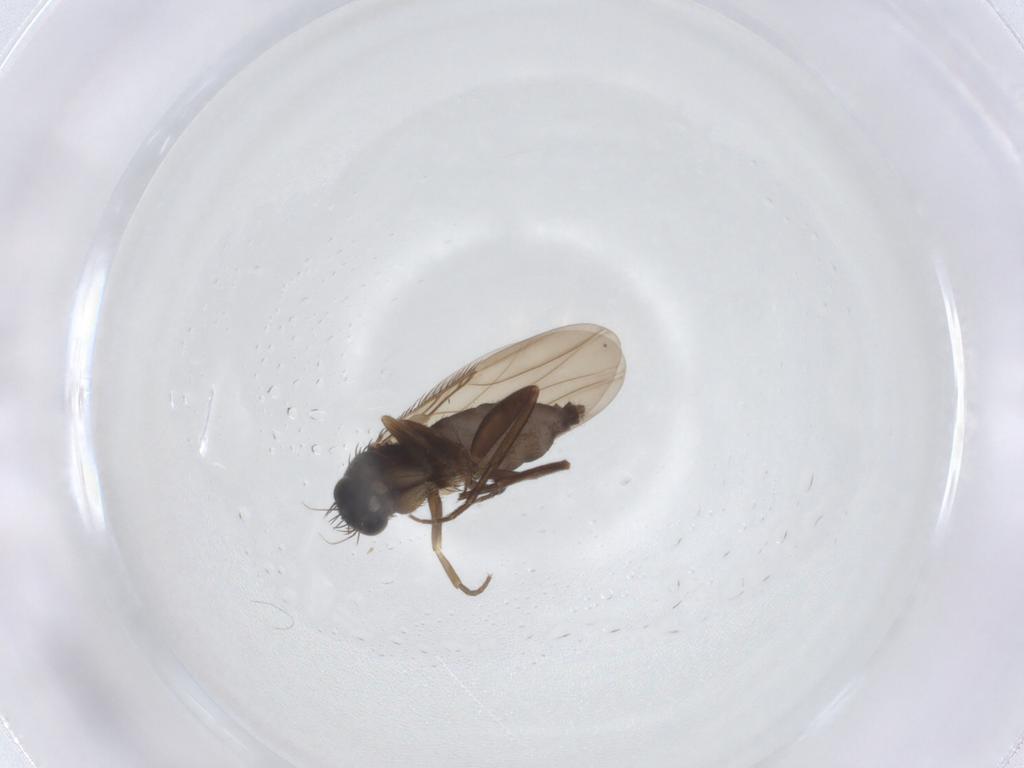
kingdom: Animalia
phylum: Arthropoda
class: Insecta
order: Diptera
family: Phoridae
